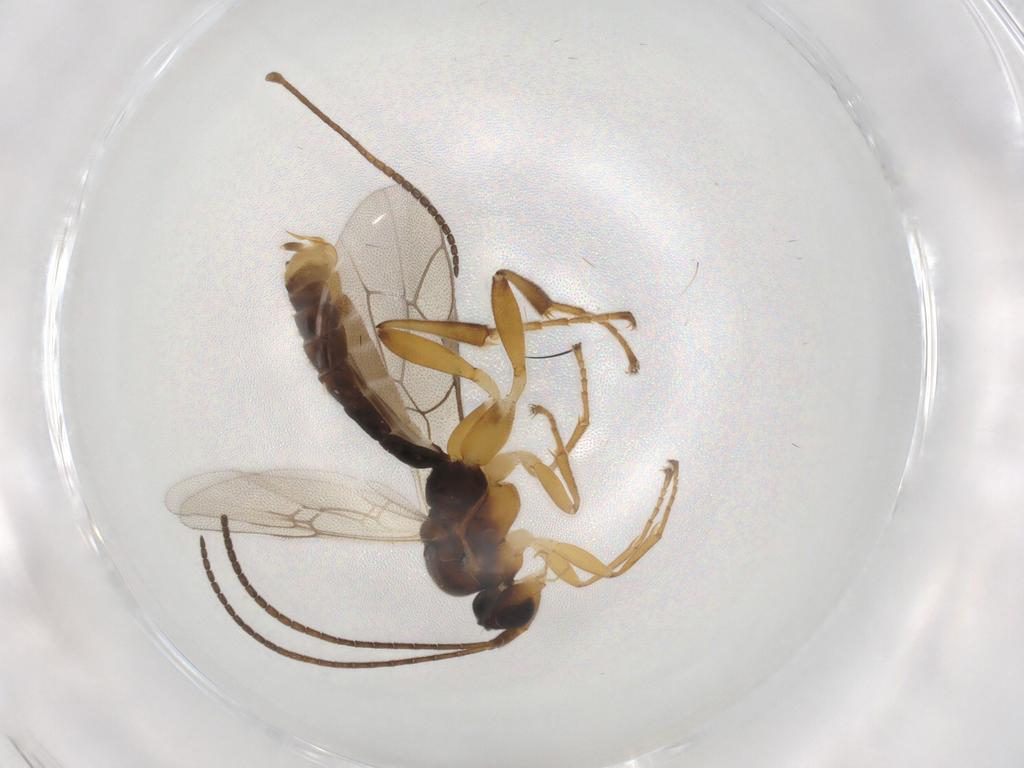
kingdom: Animalia
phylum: Arthropoda
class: Insecta
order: Hymenoptera
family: Ichneumonidae
